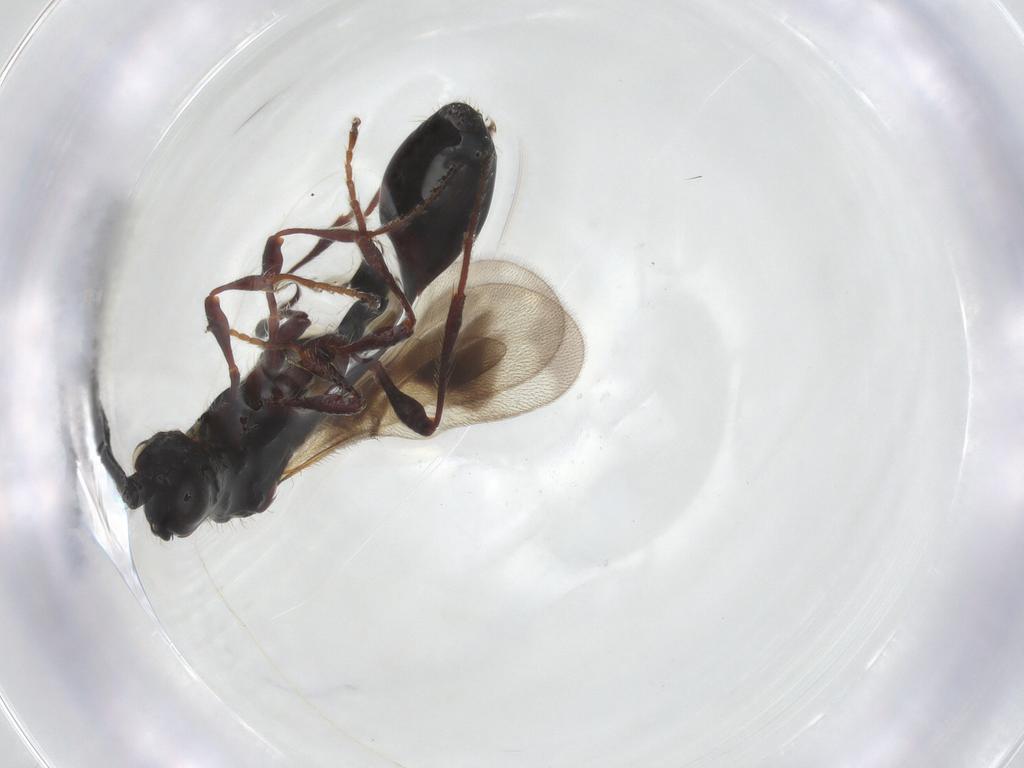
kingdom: Animalia
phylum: Arthropoda
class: Insecta
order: Hymenoptera
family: Diapriidae
